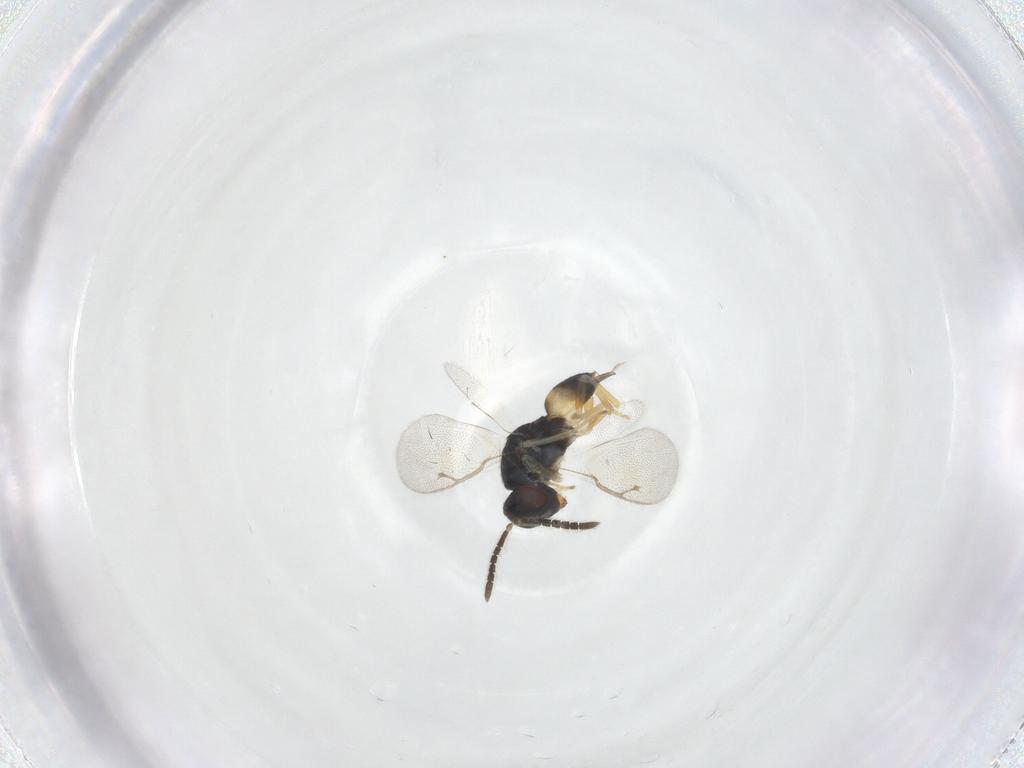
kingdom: Animalia
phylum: Arthropoda
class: Insecta
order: Hymenoptera
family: Pteromalidae
